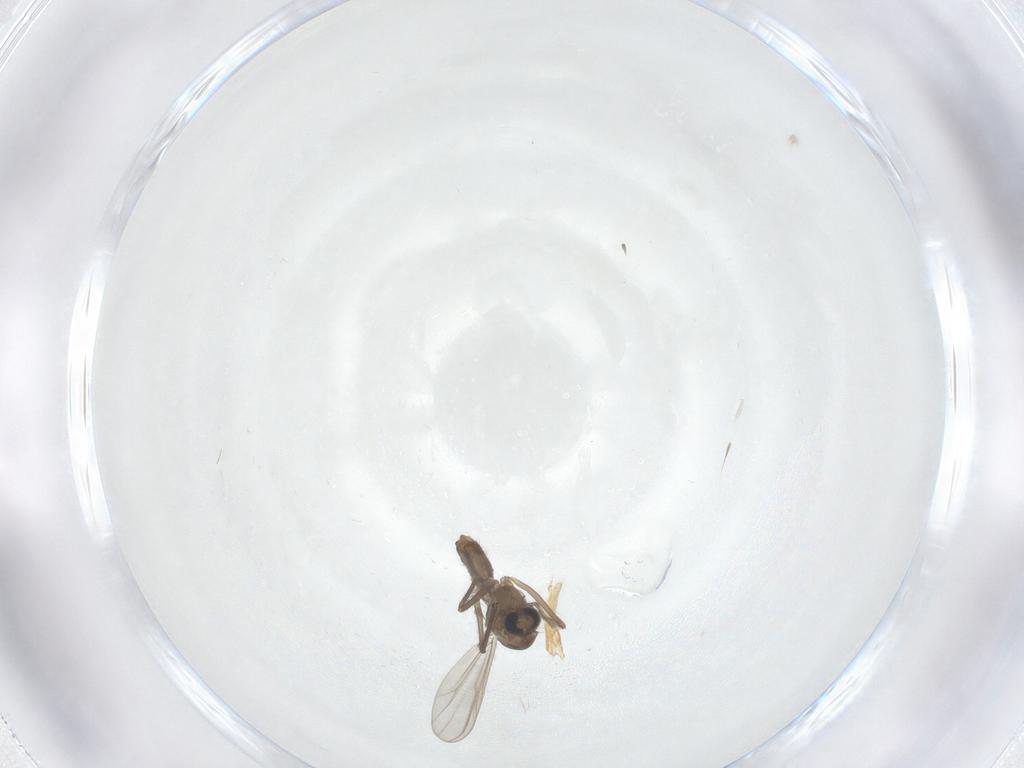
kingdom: Animalia
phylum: Arthropoda
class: Insecta
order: Diptera
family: Chironomidae
